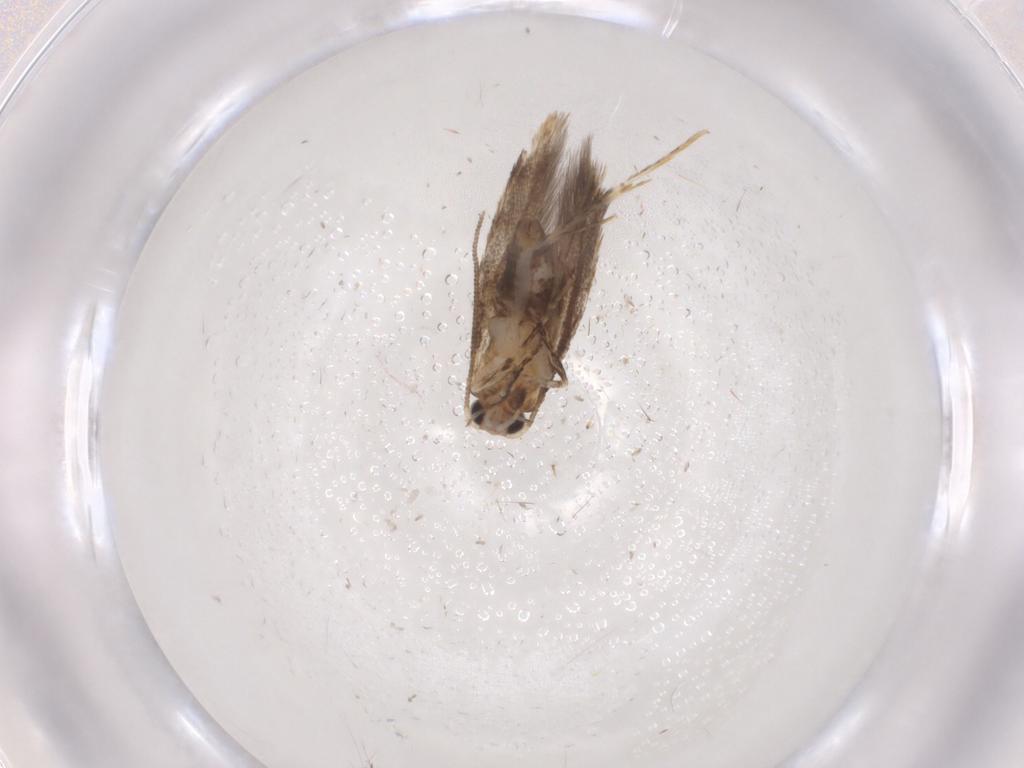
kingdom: Animalia
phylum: Arthropoda
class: Insecta
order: Lepidoptera
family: Tineidae
